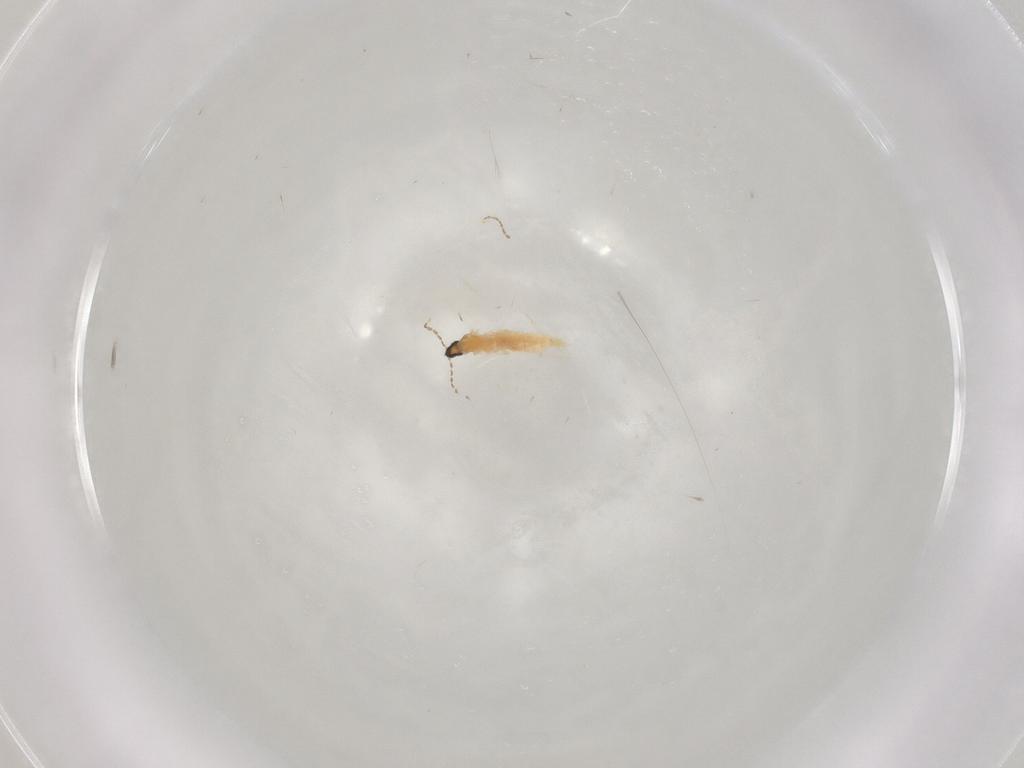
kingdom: Animalia
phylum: Arthropoda
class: Insecta
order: Diptera
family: Cecidomyiidae
